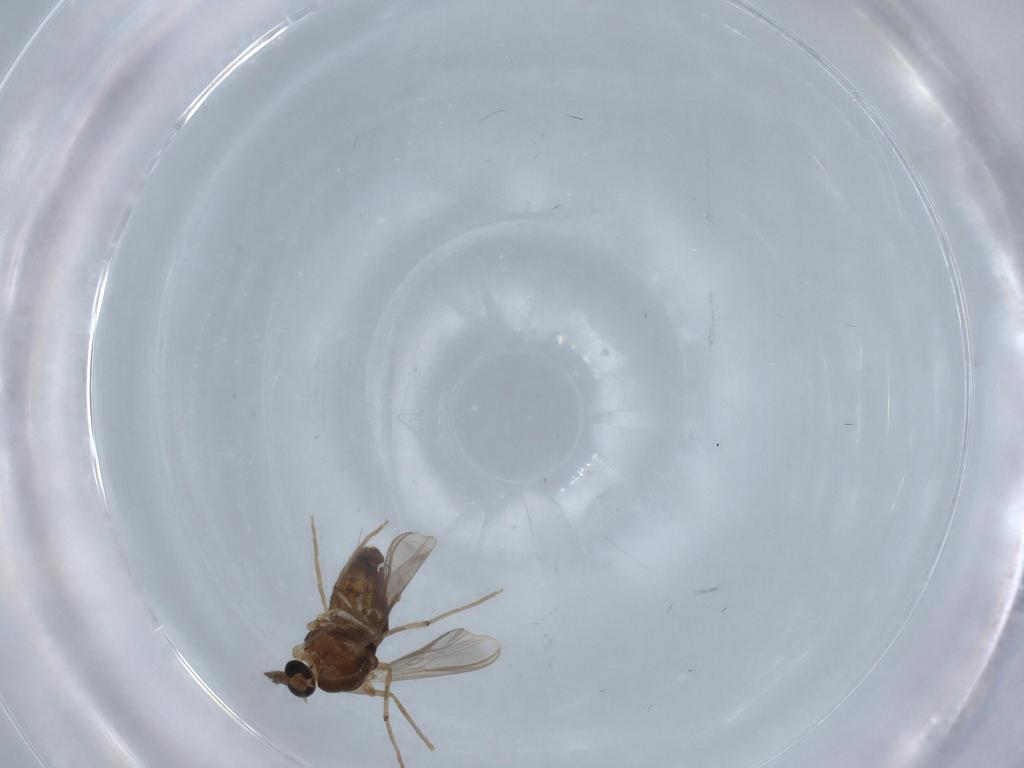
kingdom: Animalia
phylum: Arthropoda
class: Insecta
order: Diptera
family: Chironomidae
